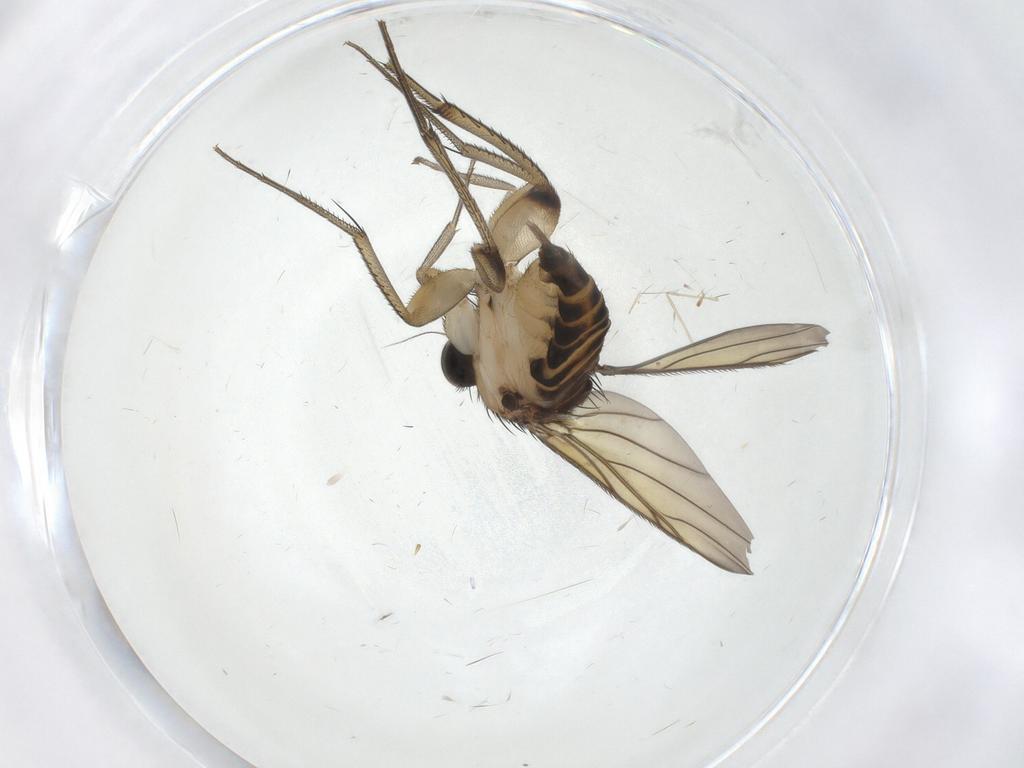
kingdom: Animalia
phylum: Arthropoda
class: Insecta
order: Diptera
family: Phoridae
